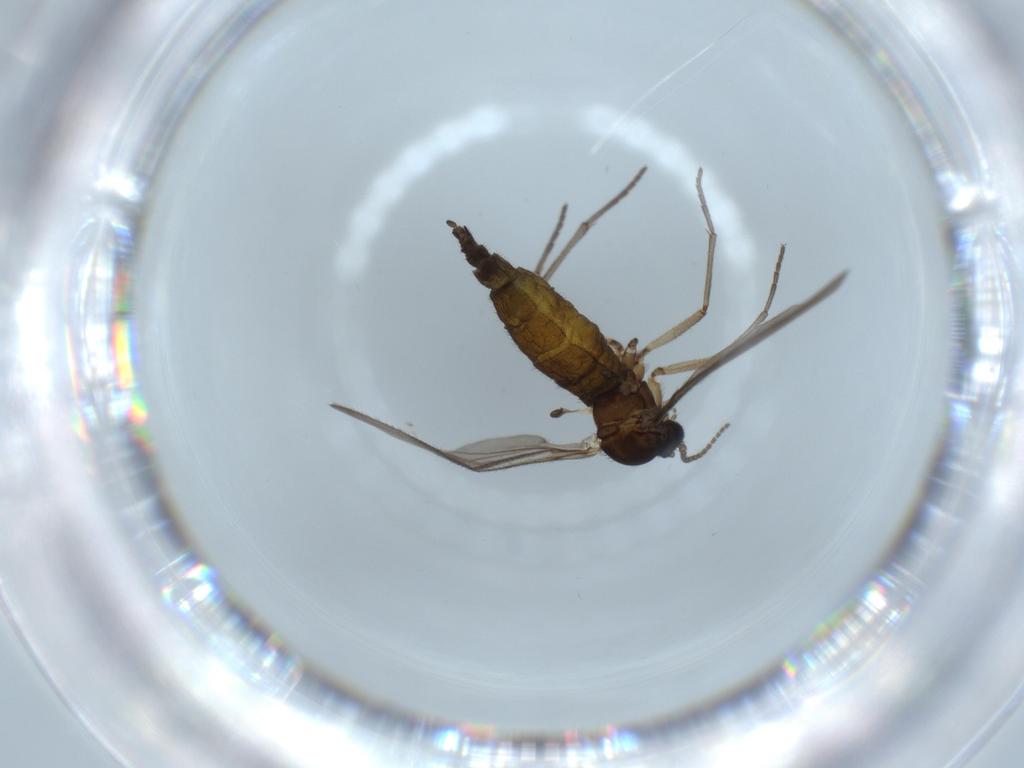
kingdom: Animalia
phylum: Arthropoda
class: Insecta
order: Diptera
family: Sciaridae
